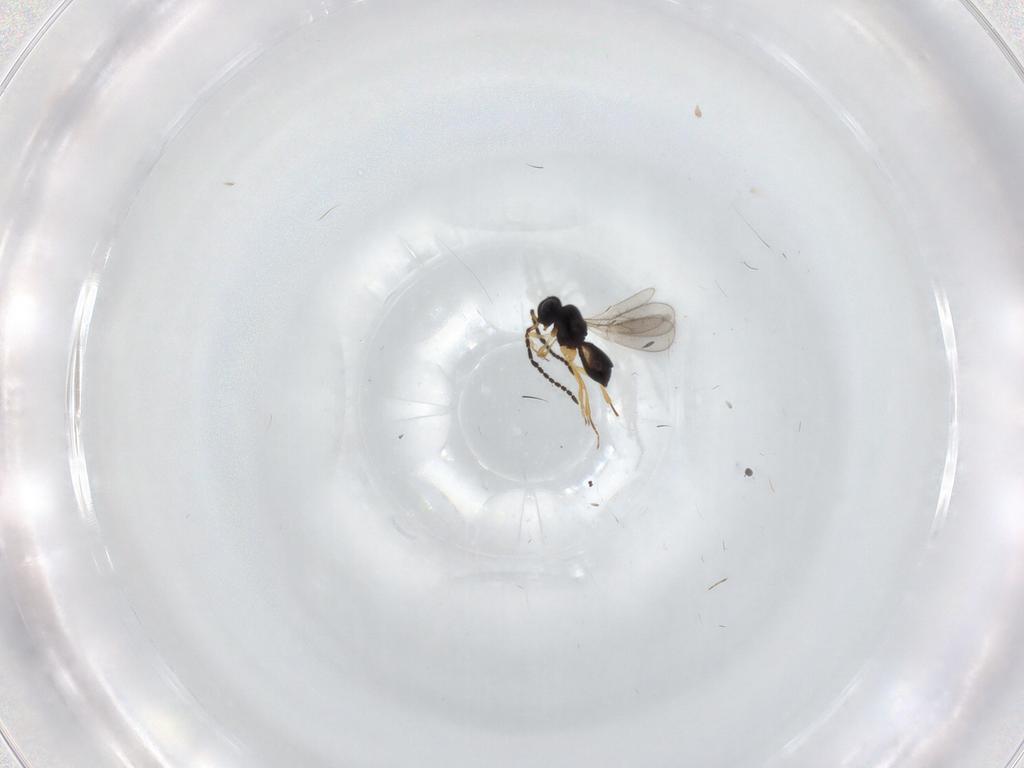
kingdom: Animalia
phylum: Arthropoda
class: Insecta
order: Hymenoptera
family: Scelionidae
